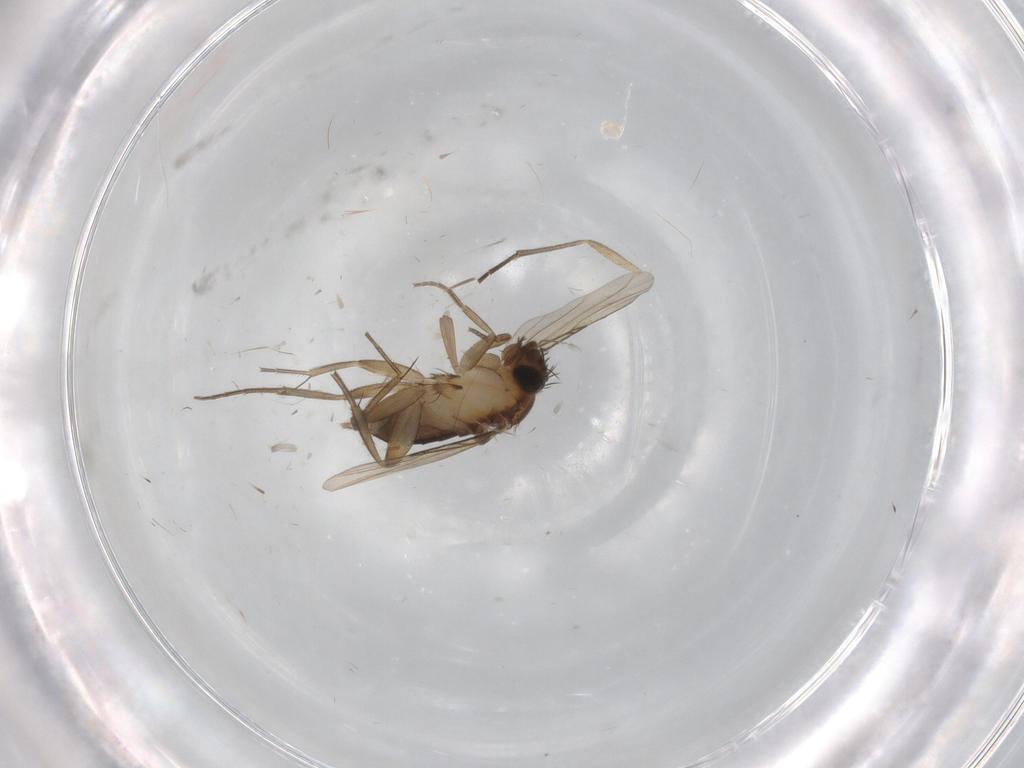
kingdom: Animalia
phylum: Arthropoda
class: Insecta
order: Diptera
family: Phoridae
